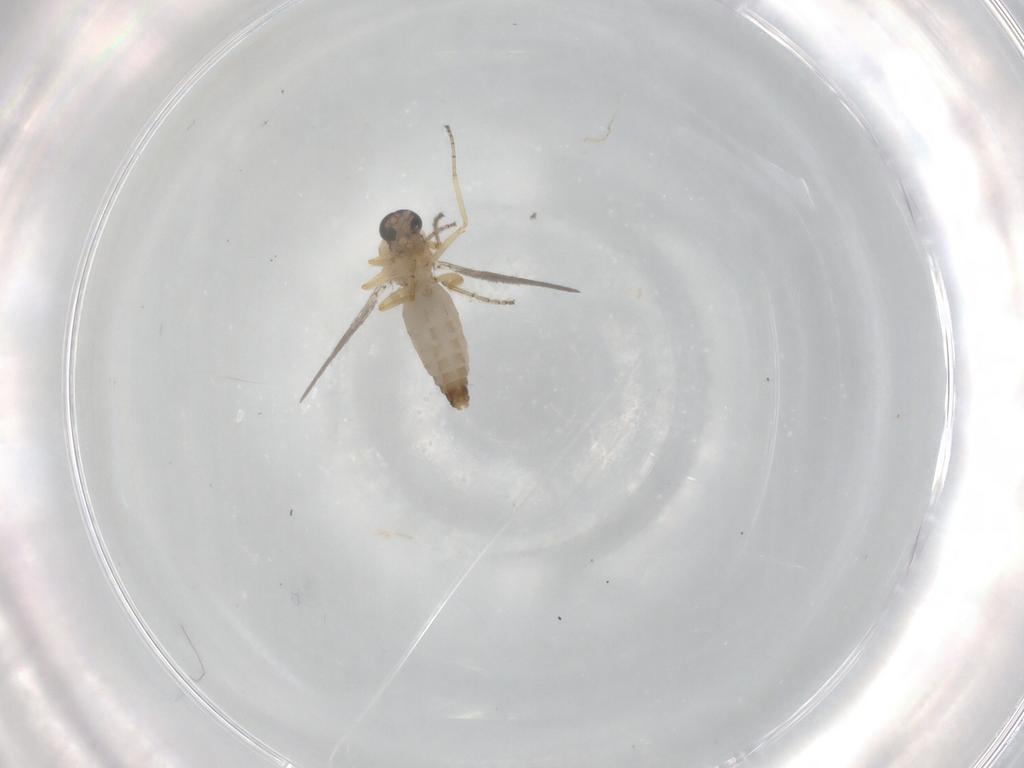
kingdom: Animalia
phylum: Arthropoda
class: Insecta
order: Diptera
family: Ceratopogonidae
